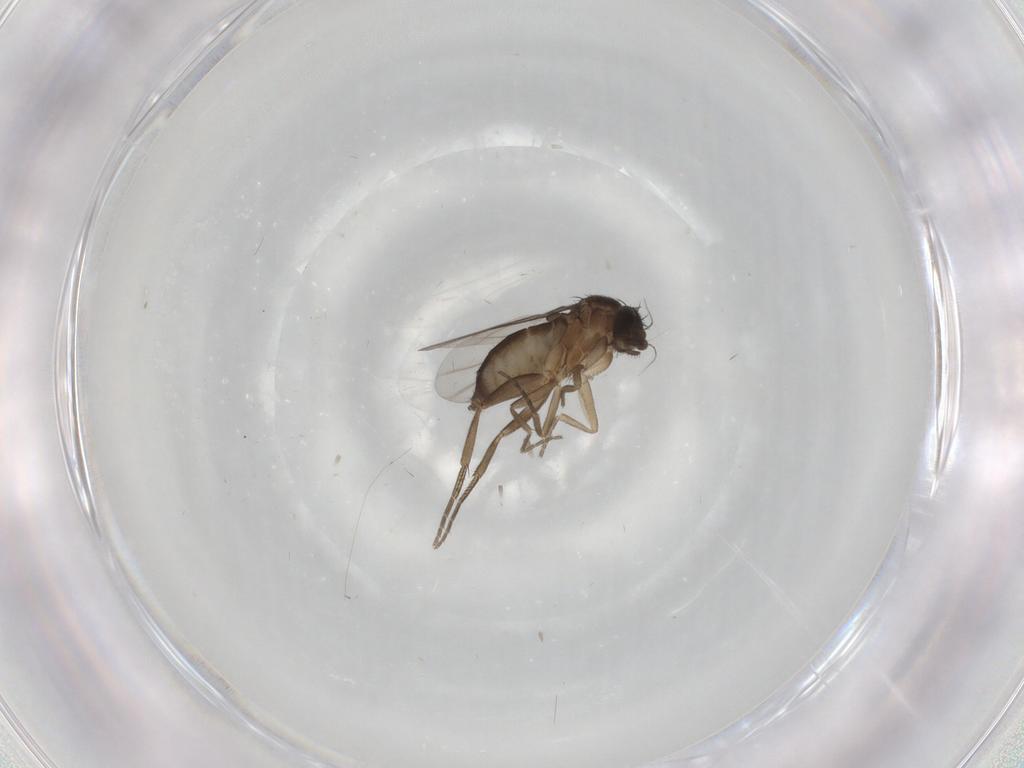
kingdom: Animalia
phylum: Arthropoda
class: Insecta
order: Diptera
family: Phoridae
